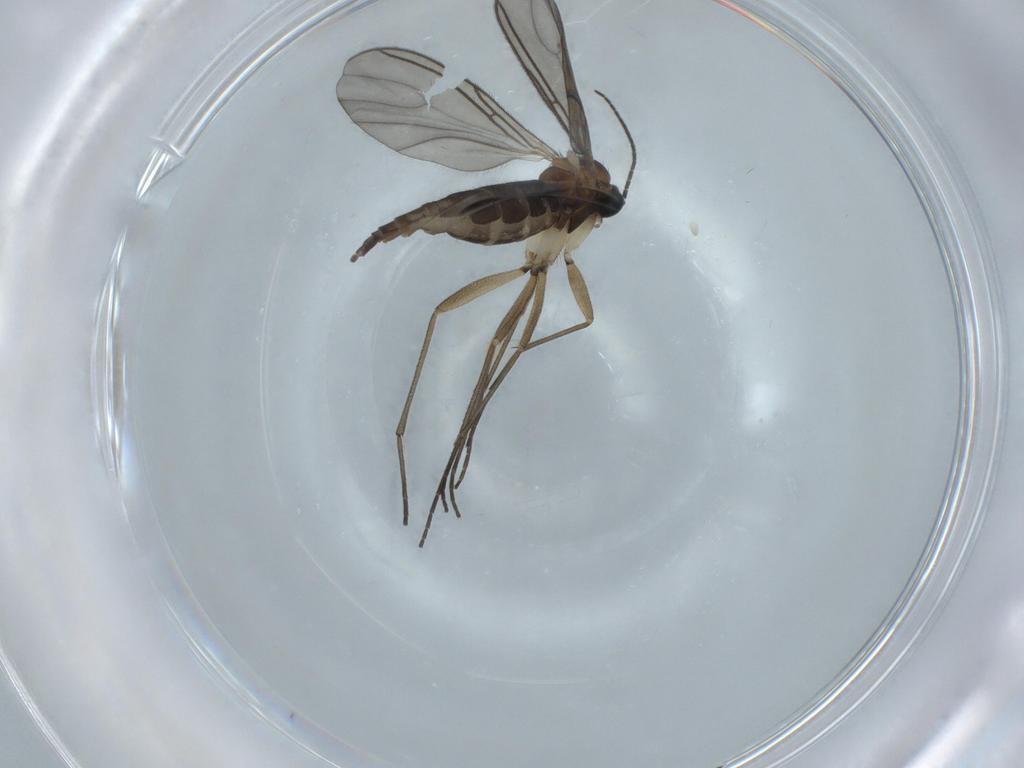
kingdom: Animalia
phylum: Arthropoda
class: Insecta
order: Diptera
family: Sciaridae
